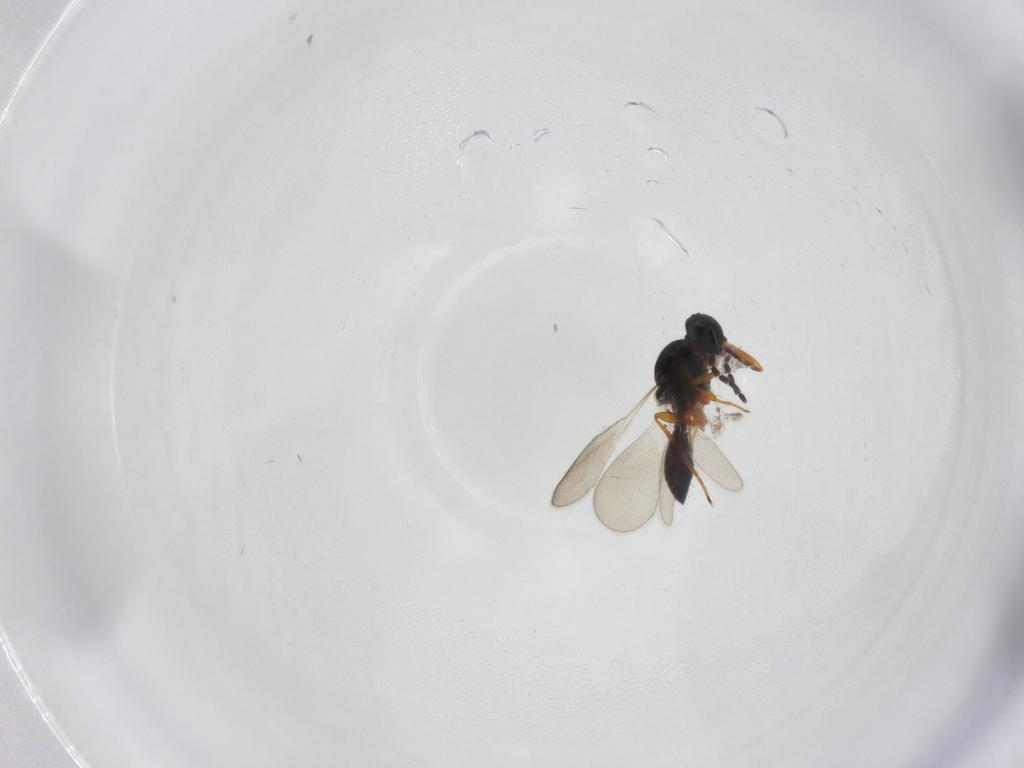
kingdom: Animalia
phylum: Arthropoda
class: Insecta
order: Hymenoptera
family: Platygastridae
